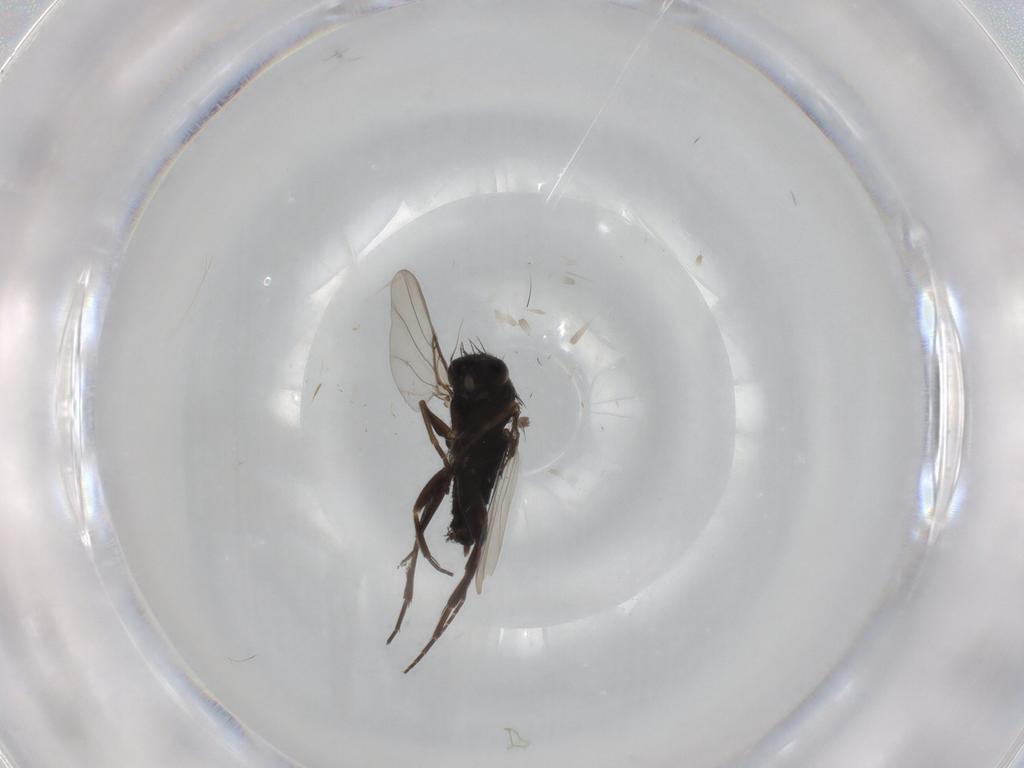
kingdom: Animalia
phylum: Arthropoda
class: Insecta
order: Diptera
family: Phoridae
